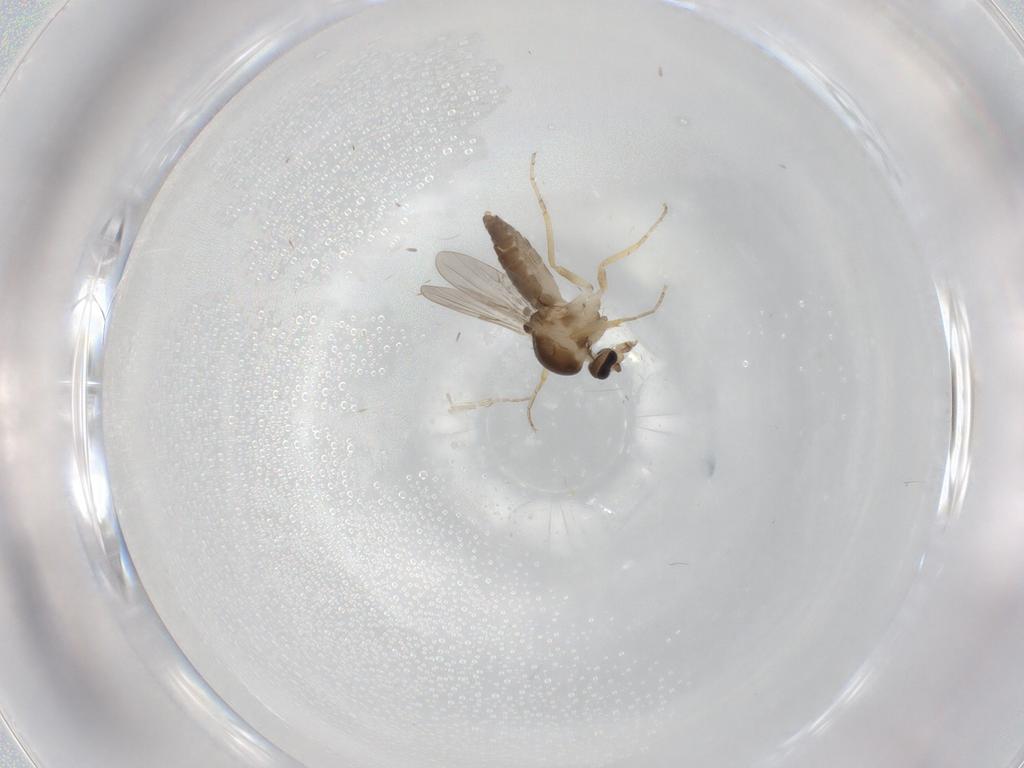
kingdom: Animalia
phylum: Arthropoda
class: Insecta
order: Diptera
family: Ceratopogonidae
